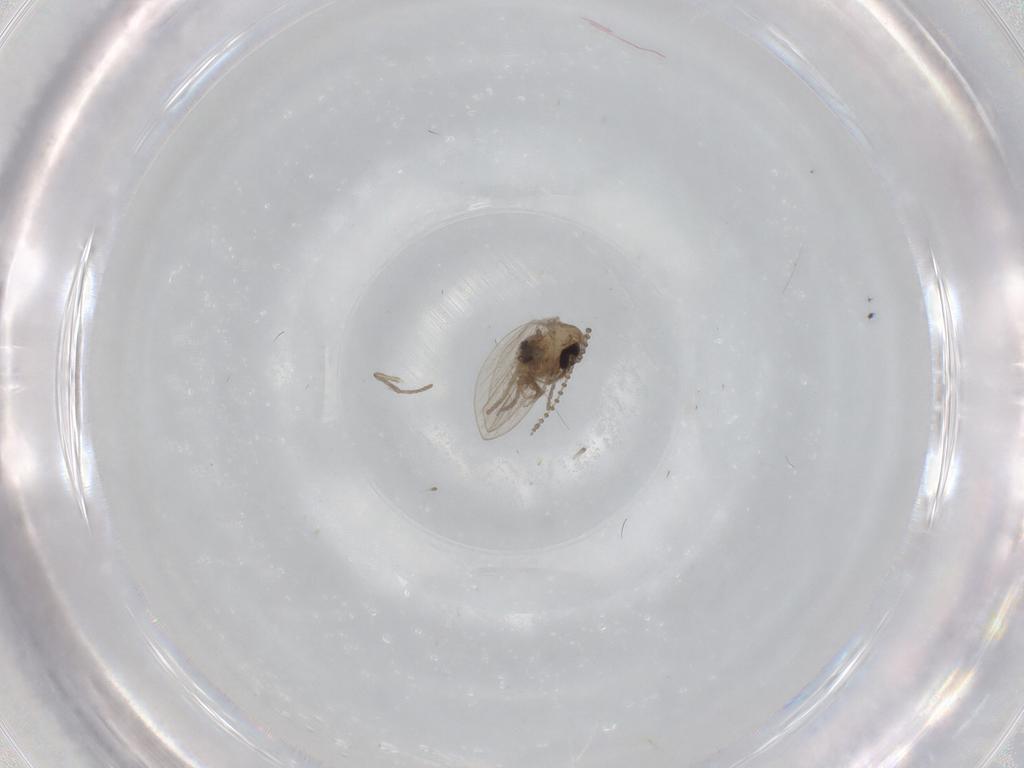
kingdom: Animalia
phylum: Arthropoda
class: Insecta
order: Diptera
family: Psychodidae
